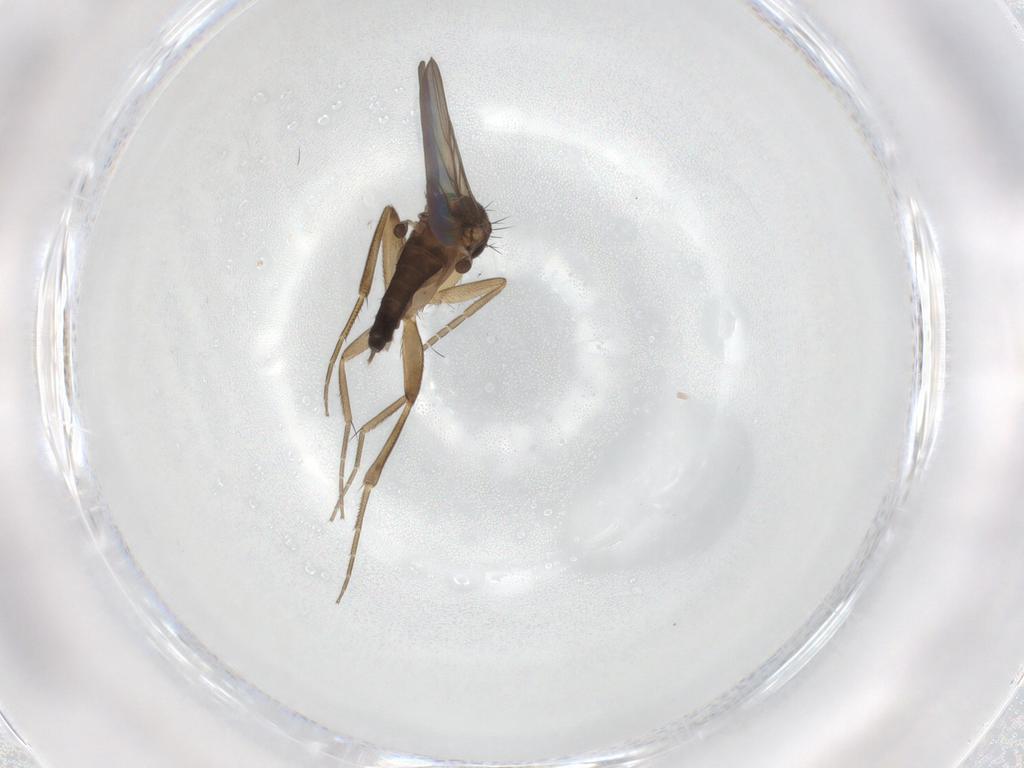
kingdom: Animalia
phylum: Arthropoda
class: Insecta
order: Diptera
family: Phoridae
